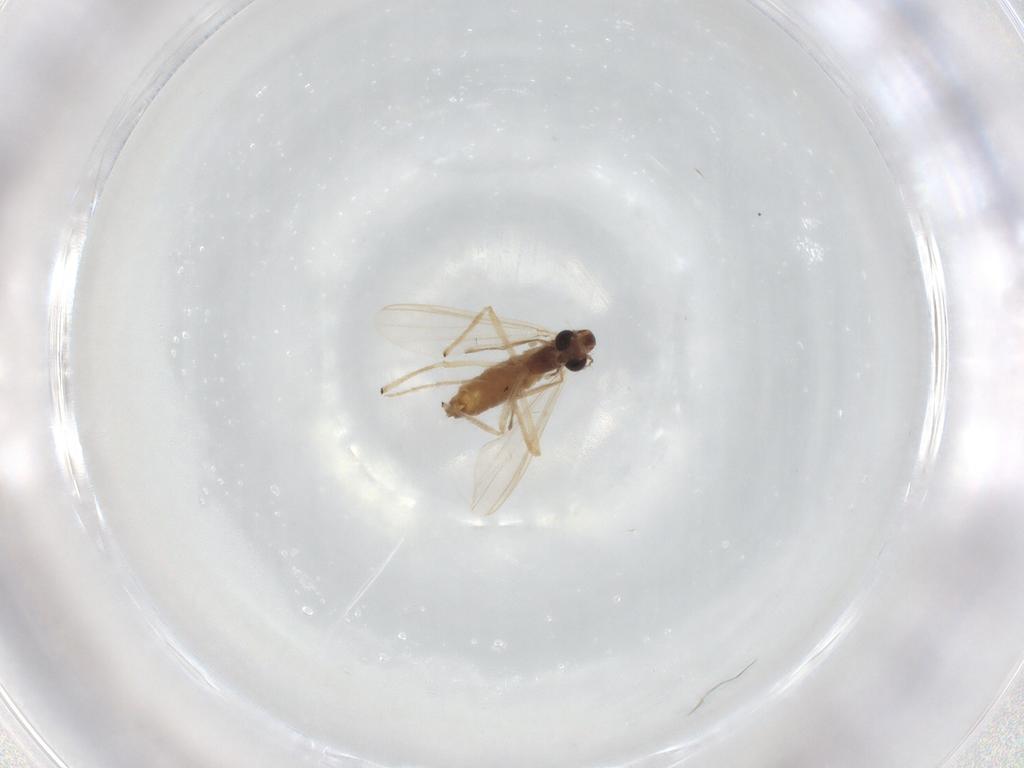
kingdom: Animalia
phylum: Arthropoda
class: Insecta
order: Diptera
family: Chironomidae
